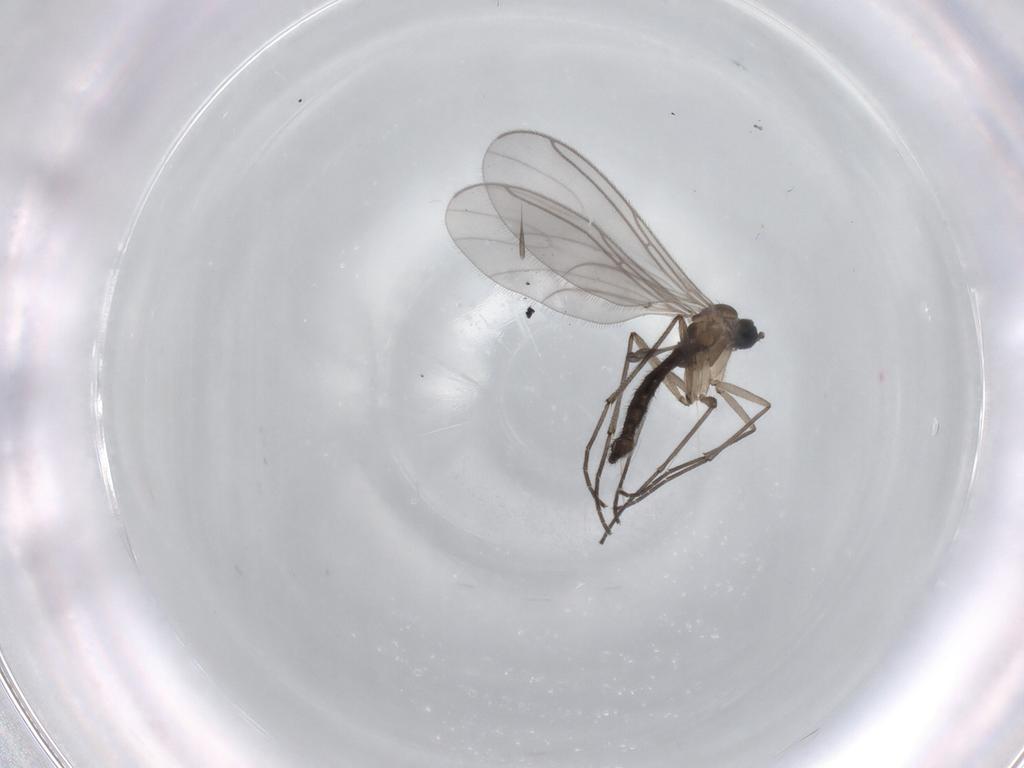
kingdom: Animalia
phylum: Arthropoda
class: Insecta
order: Diptera
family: Sciaridae
